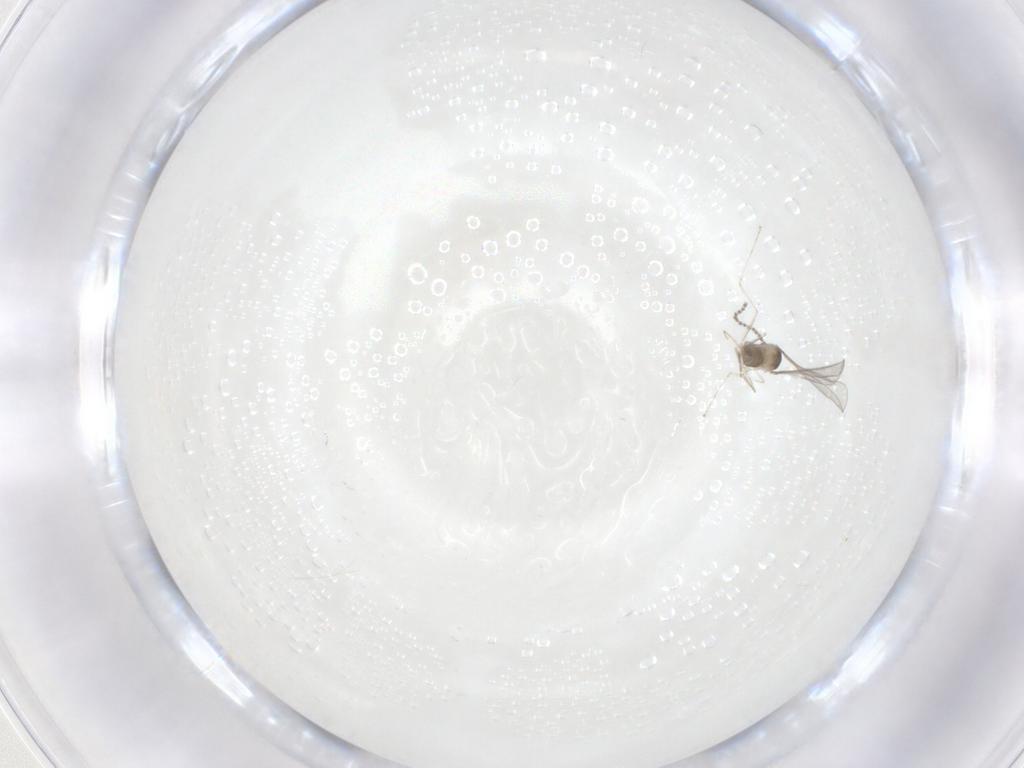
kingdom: Animalia
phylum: Arthropoda
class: Insecta
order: Diptera
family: Cecidomyiidae
